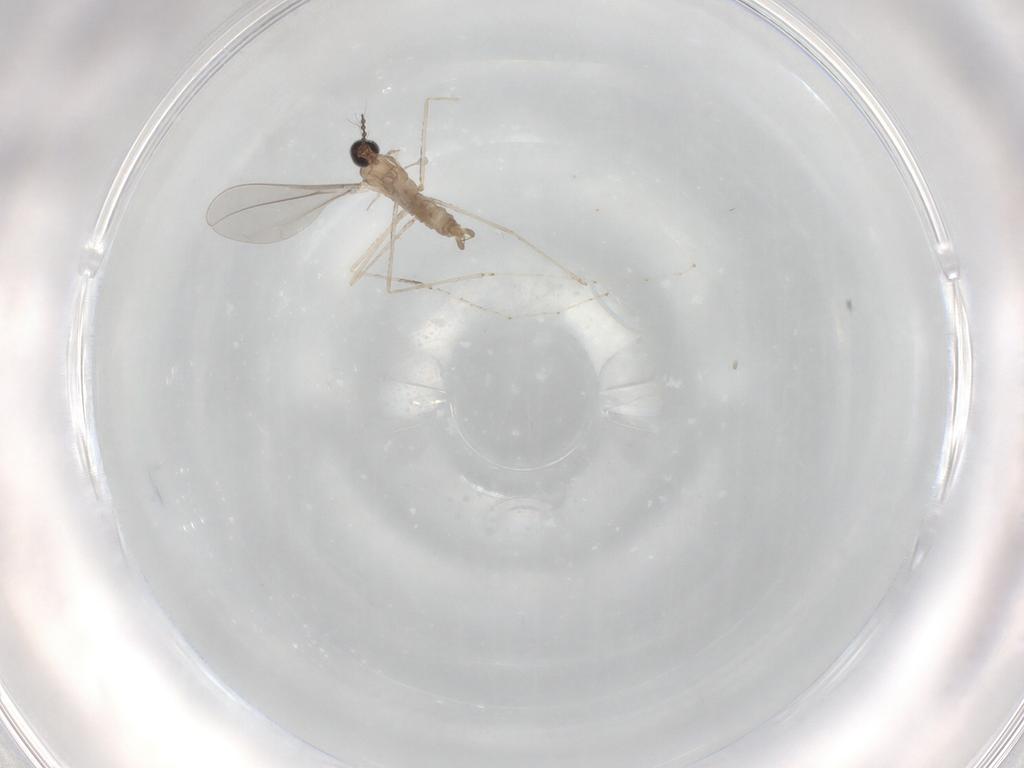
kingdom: Animalia
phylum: Arthropoda
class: Insecta
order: Diptera
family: Cecidomyiidae
